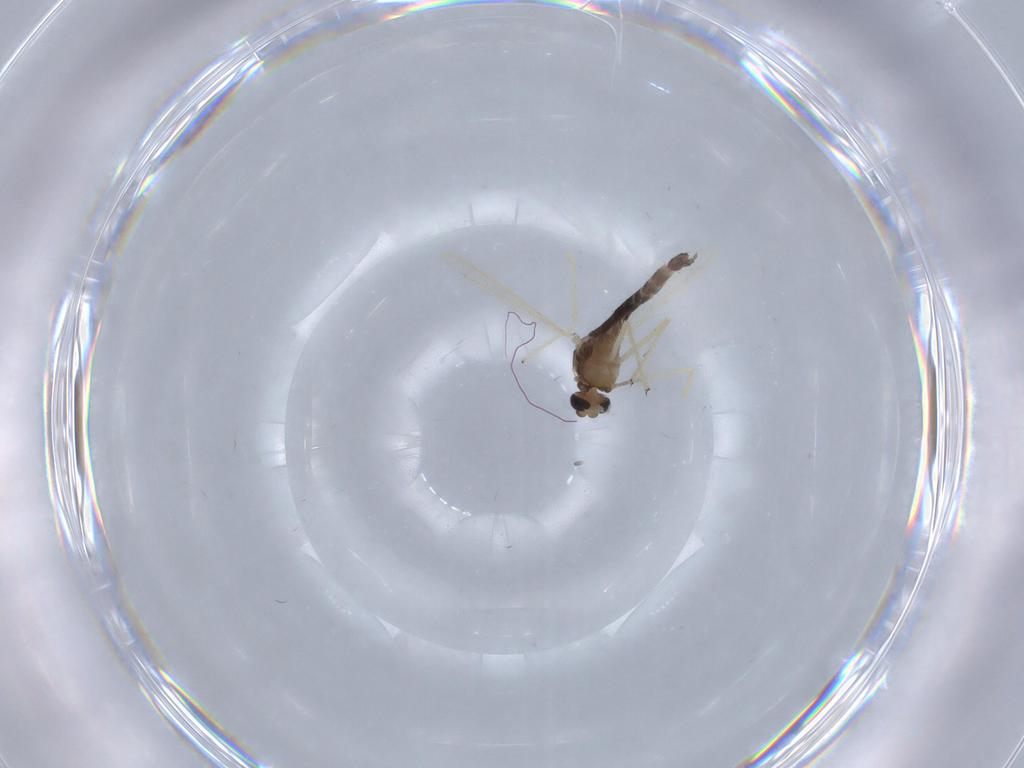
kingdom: Animalia
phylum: Arthropoda
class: Insecta
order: Diptera
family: Chironomidae
